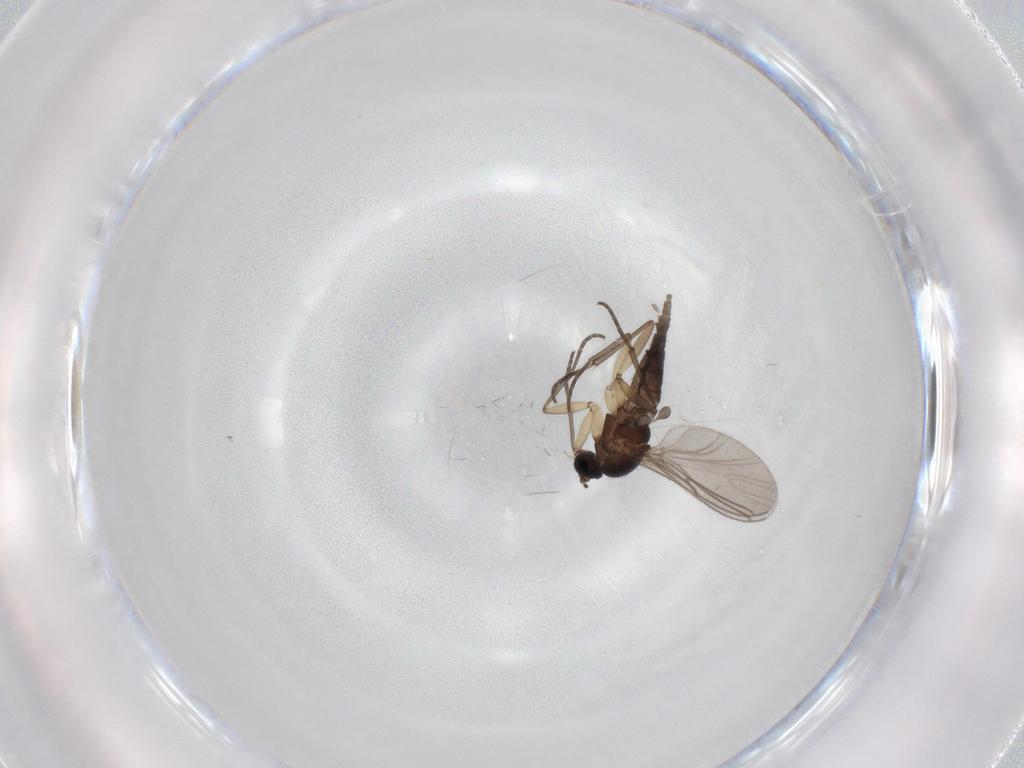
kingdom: Animalia
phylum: Arthropoda
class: Insecta
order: Diptera
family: Sciaridae
